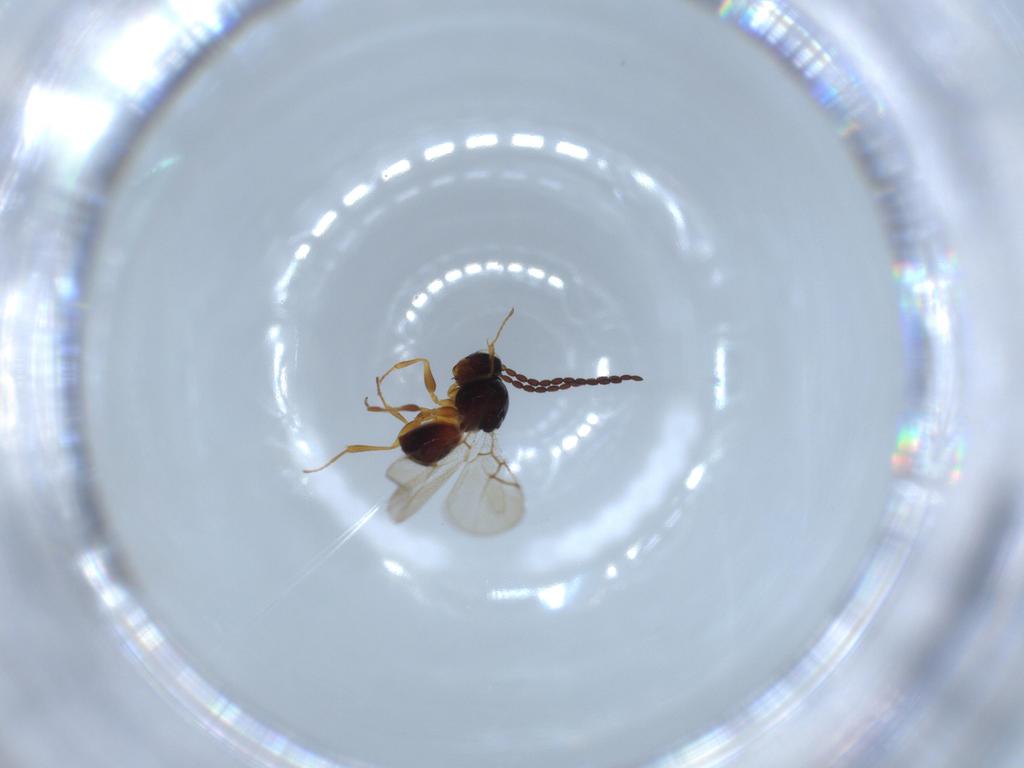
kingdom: Animalia
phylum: Arthropoda
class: Insecta
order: Hymenoptera
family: Figitidae
